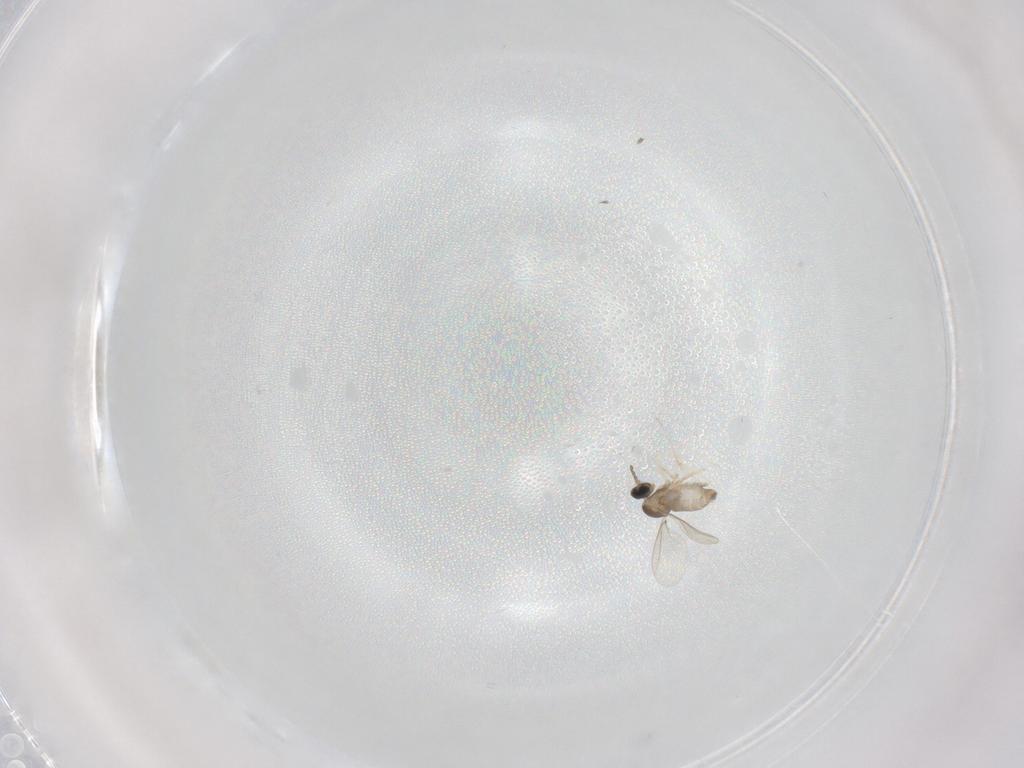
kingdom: Animalia
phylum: Arthropoda
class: Insecta
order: Diptera
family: Cecidomyiidae
